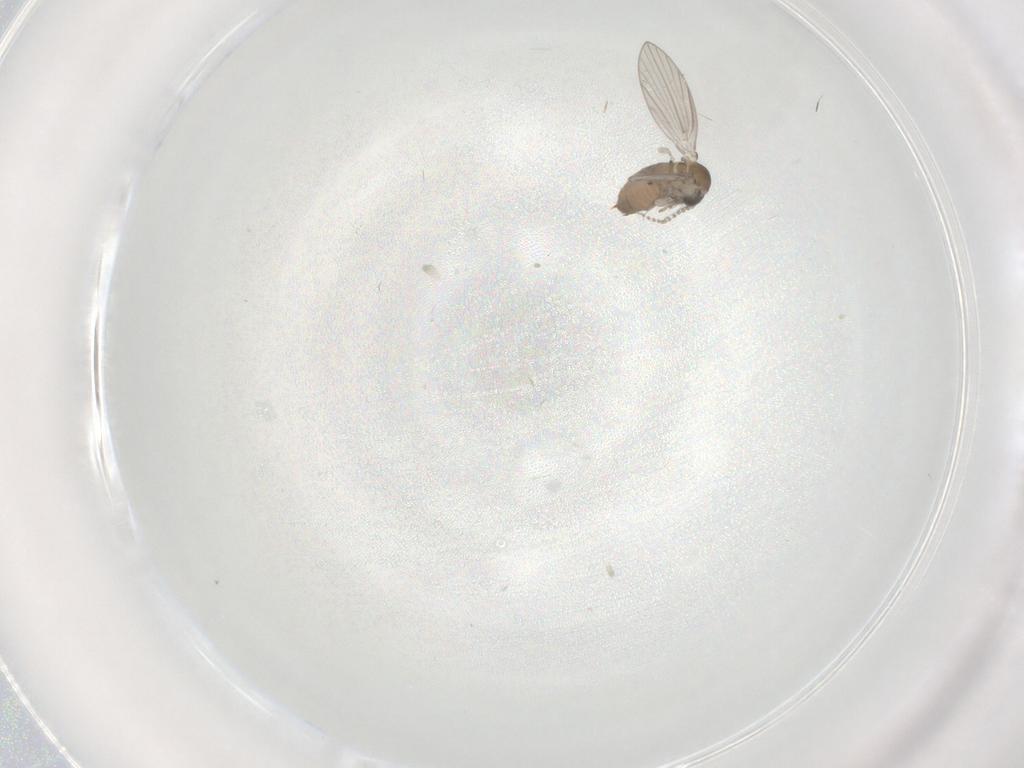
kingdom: Animalia
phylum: Arthropoda
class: Insecta
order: Diptera
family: Psychodidae
